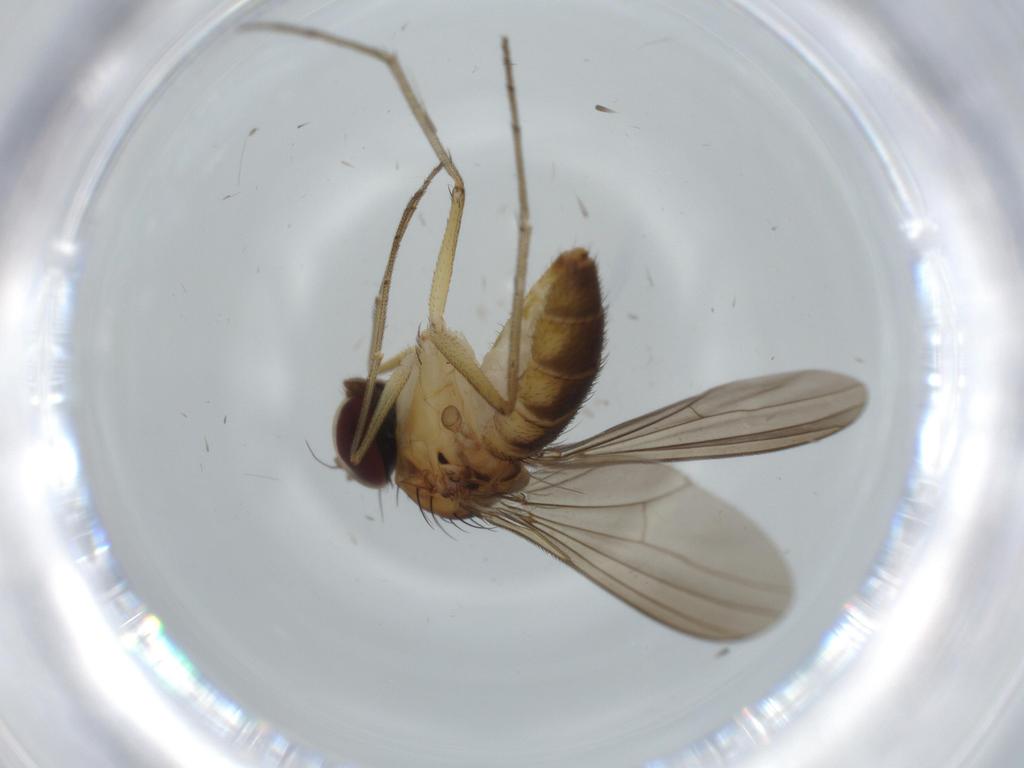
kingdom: Animalia
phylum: Arthropoda
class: Insecta
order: Diptera
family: Dolichopodidae
